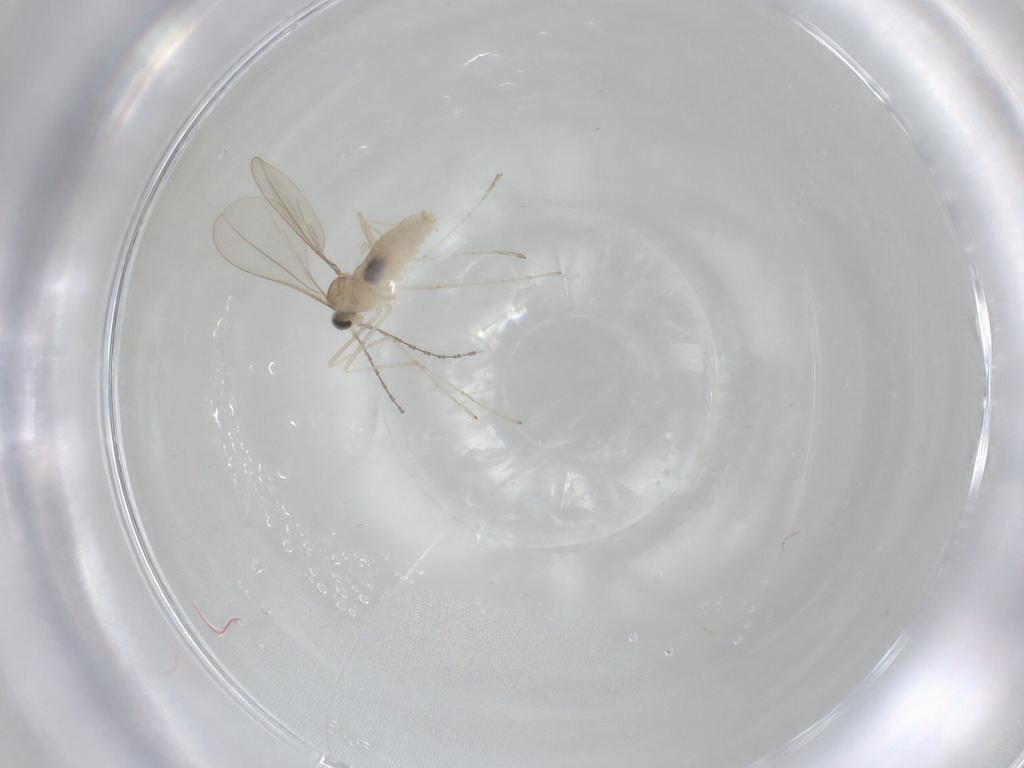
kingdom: Animalia
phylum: Arthropoda
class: Insecta
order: Diptera
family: Cecidomyiidae
